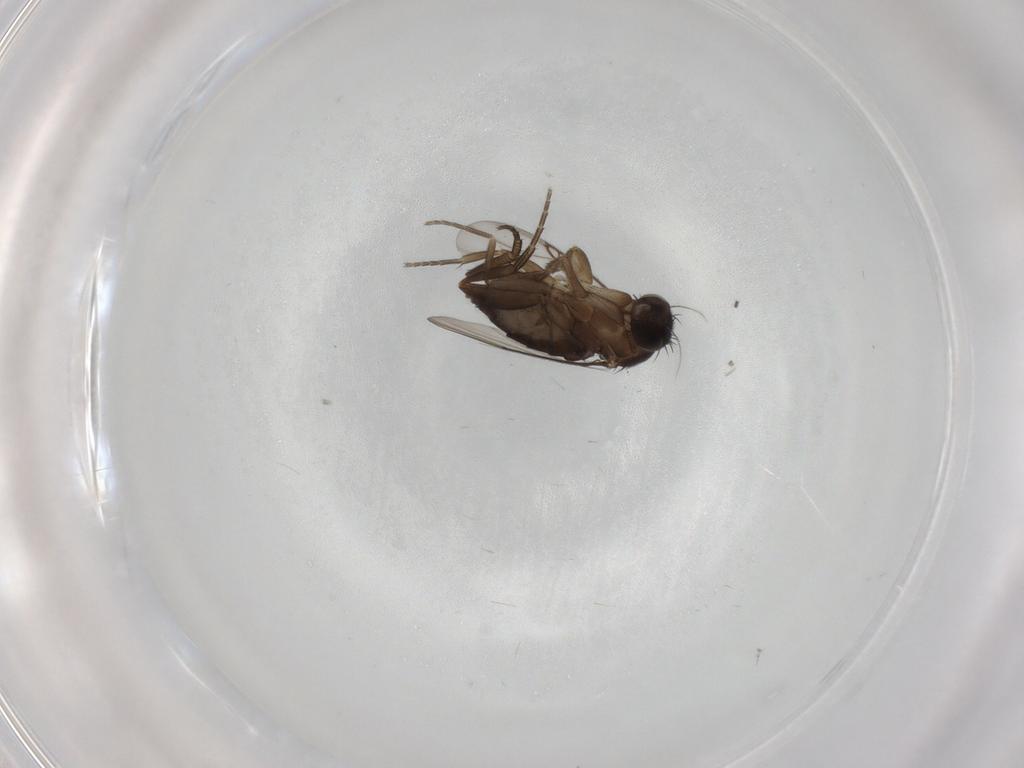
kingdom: Animalia
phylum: Arthropoda
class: Insecta
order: Diptera
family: Phoridae
